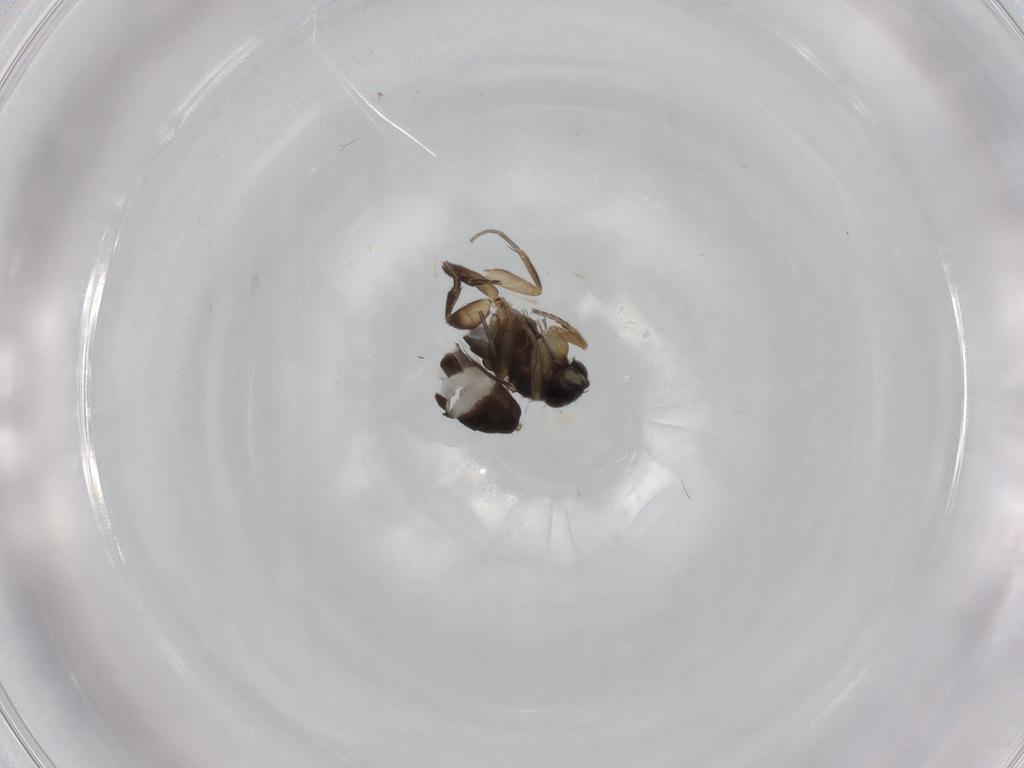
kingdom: Animalia
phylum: Arthropoda
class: Insecta
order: Diptera
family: Phoridae
